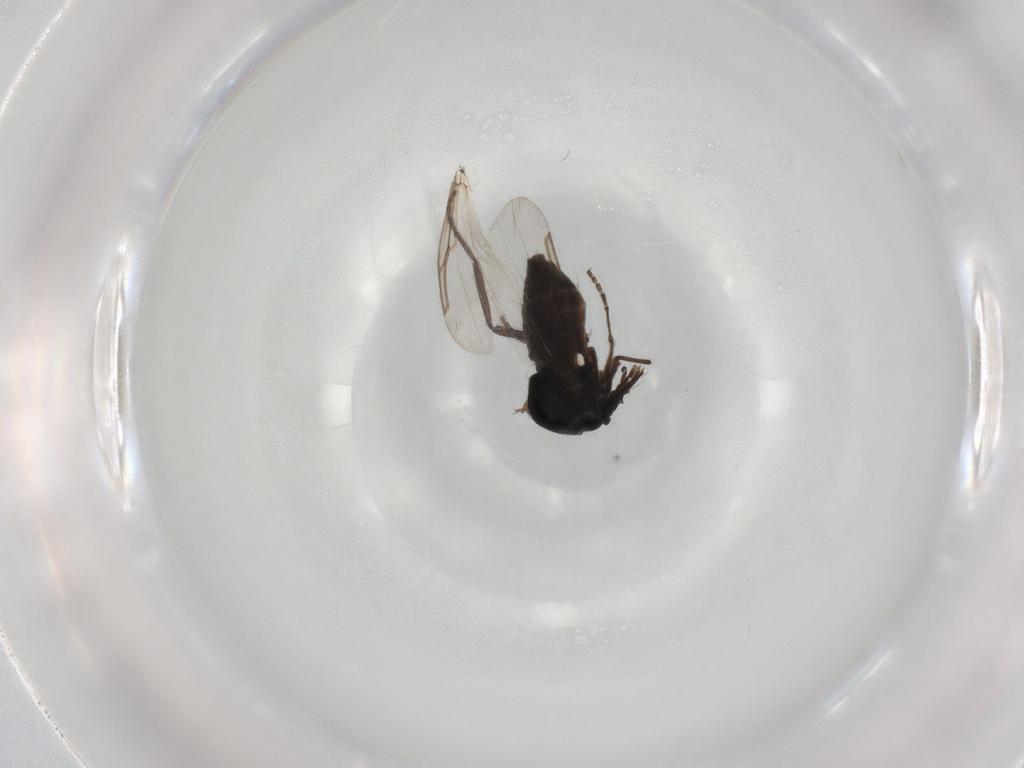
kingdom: Animalia
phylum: Arthropoda
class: Insecta
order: Diptera
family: Ceratopogonidae
